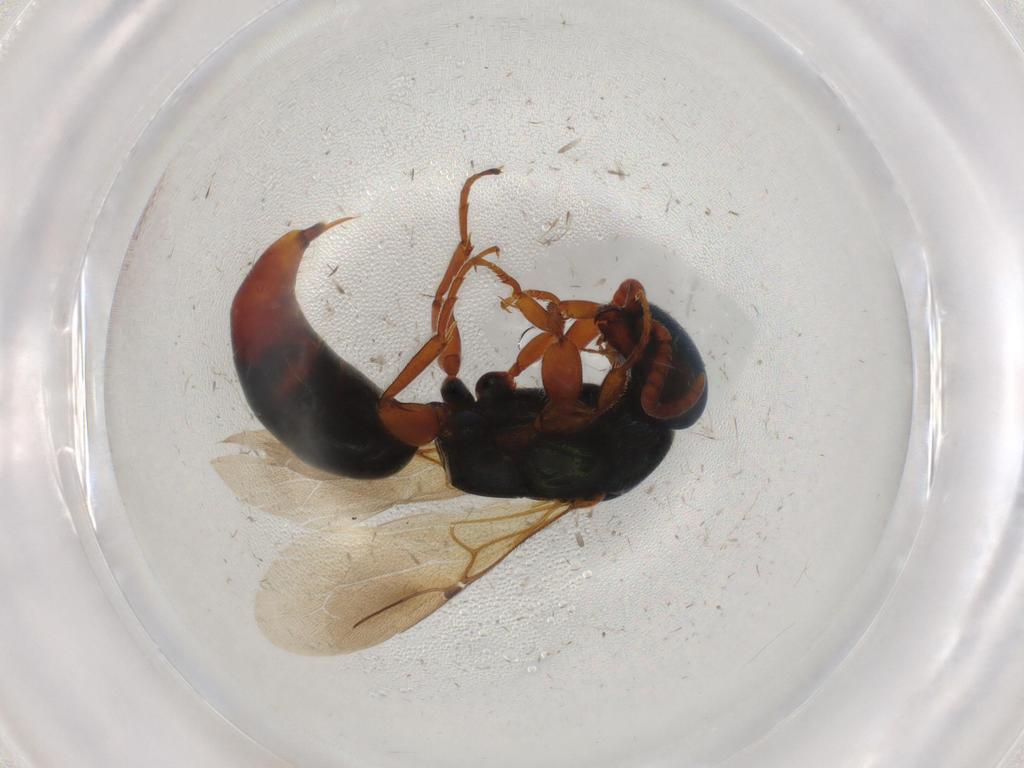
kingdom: Animalia
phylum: Arthropoda
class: Insecta
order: Hymenoptera
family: Bethylidae
